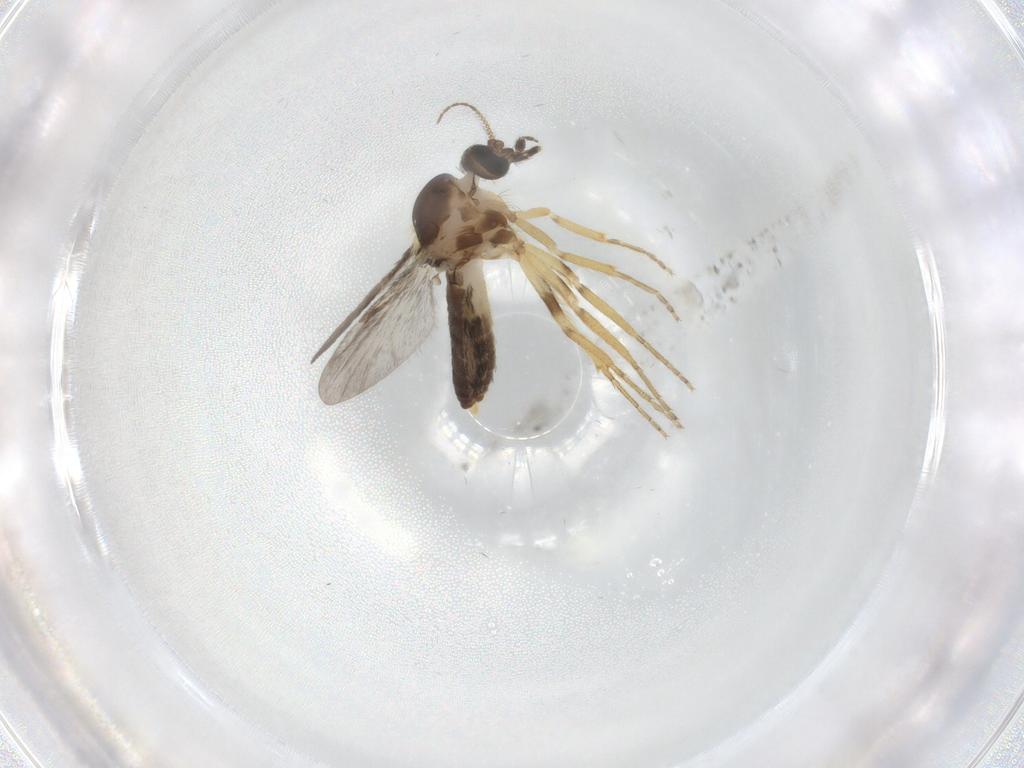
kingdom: Animalia
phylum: Arthropoda
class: Insecta
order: Diptera
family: Ceratopogonidae
